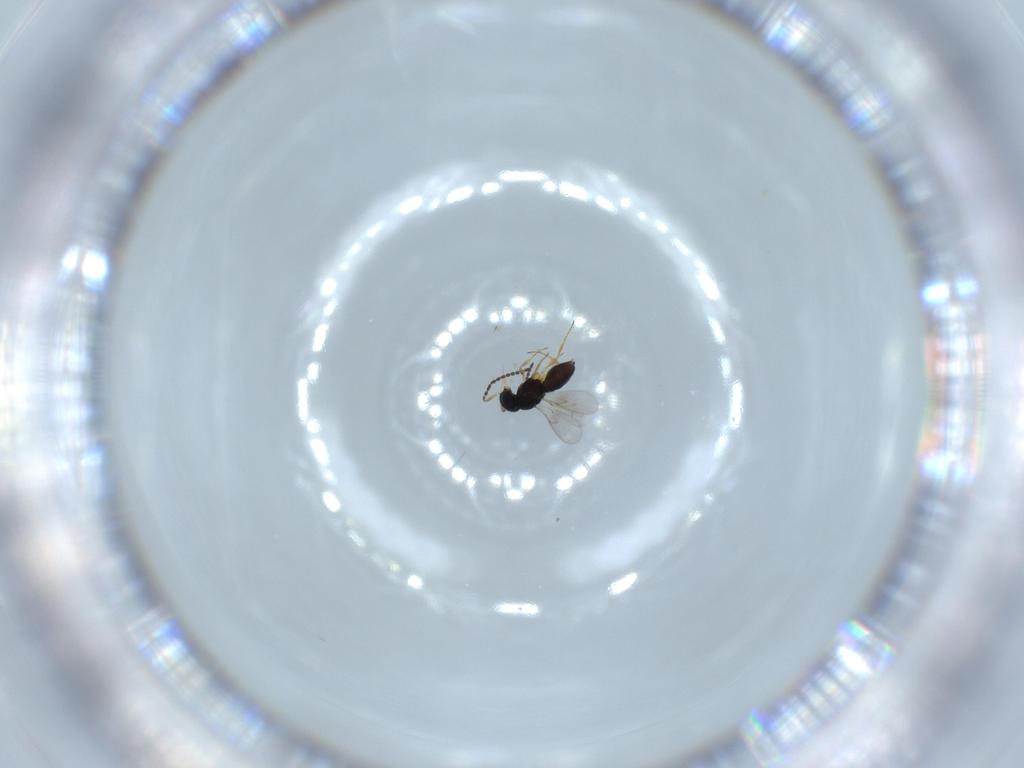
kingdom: Animalia
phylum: Arthropoda
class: Insecta
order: Hymenoptera
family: Scelionidae
